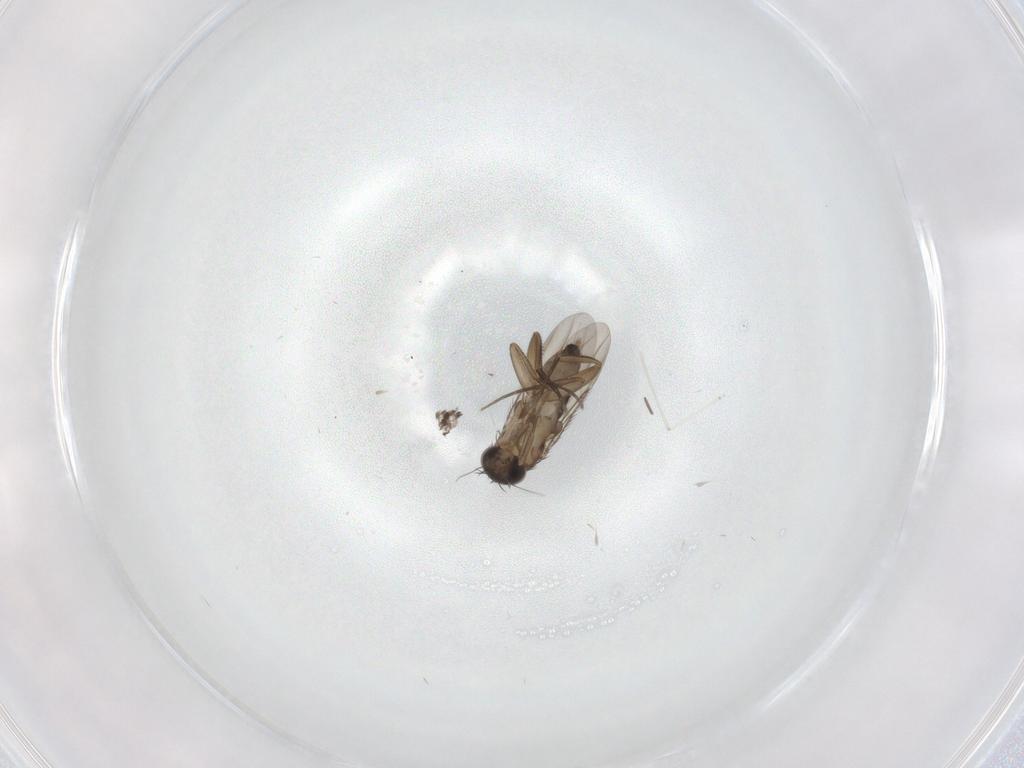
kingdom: Animalia
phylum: Arthropoda
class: Insecta
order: Diptera
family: Phoridae
